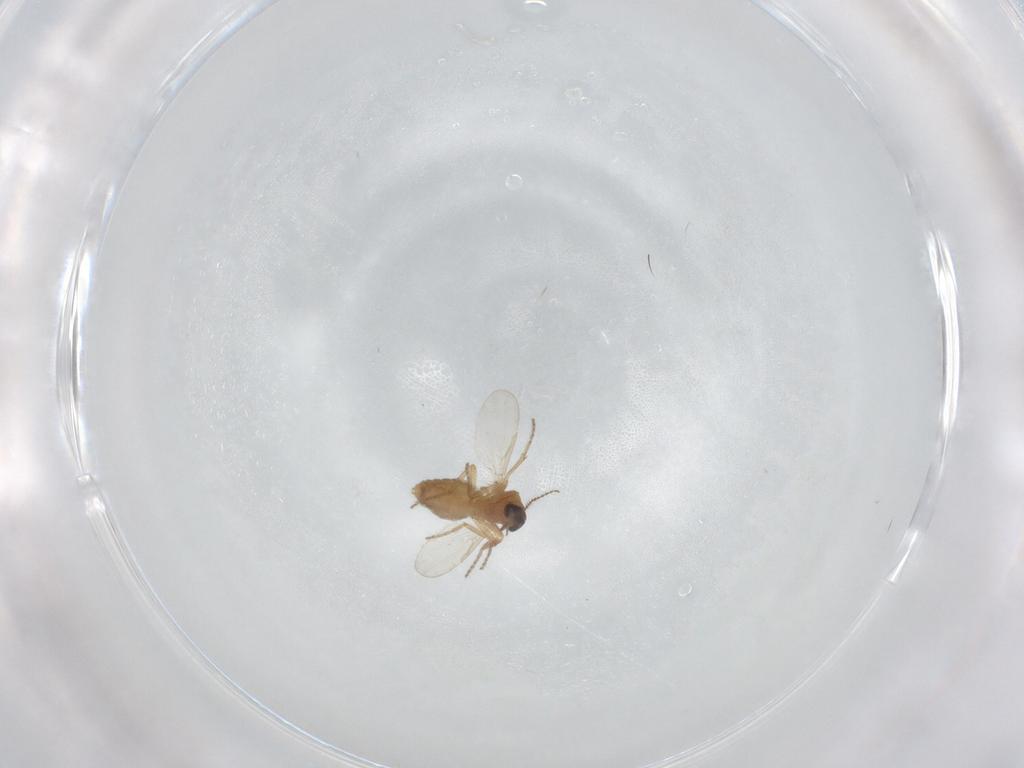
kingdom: Animalia
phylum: Arthropoda
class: Insecta
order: Diptera
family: Ceratopogonidae
